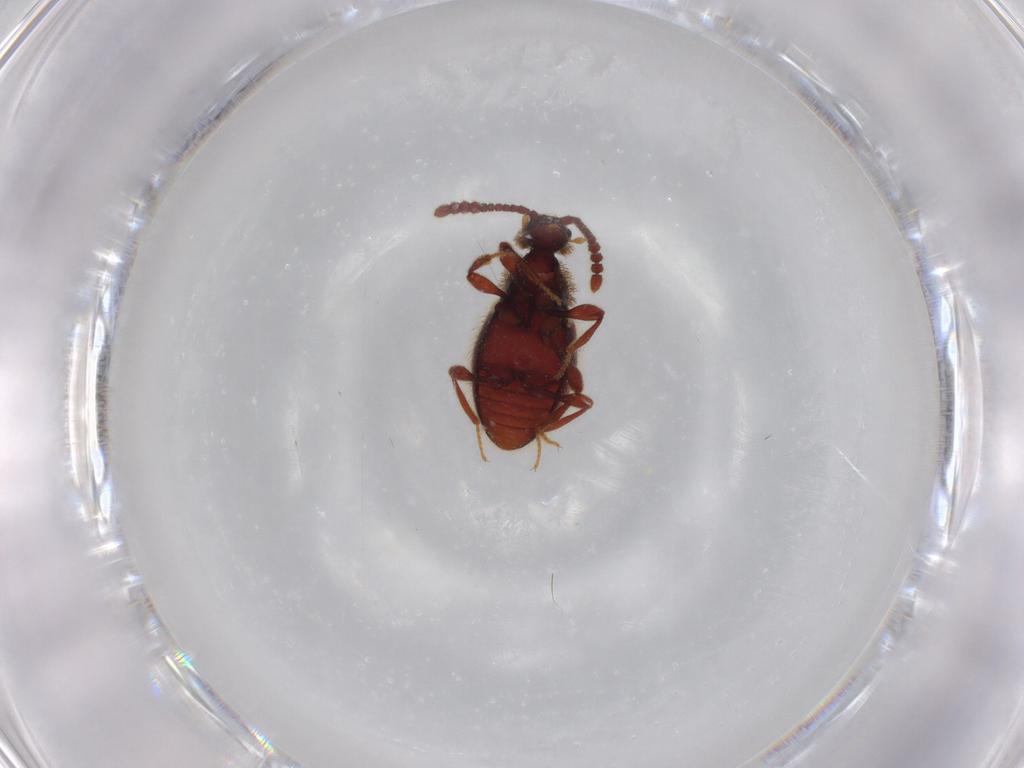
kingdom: Animalia
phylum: Arthropoda
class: Insecta
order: Coleoptera
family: Staphylinidae
